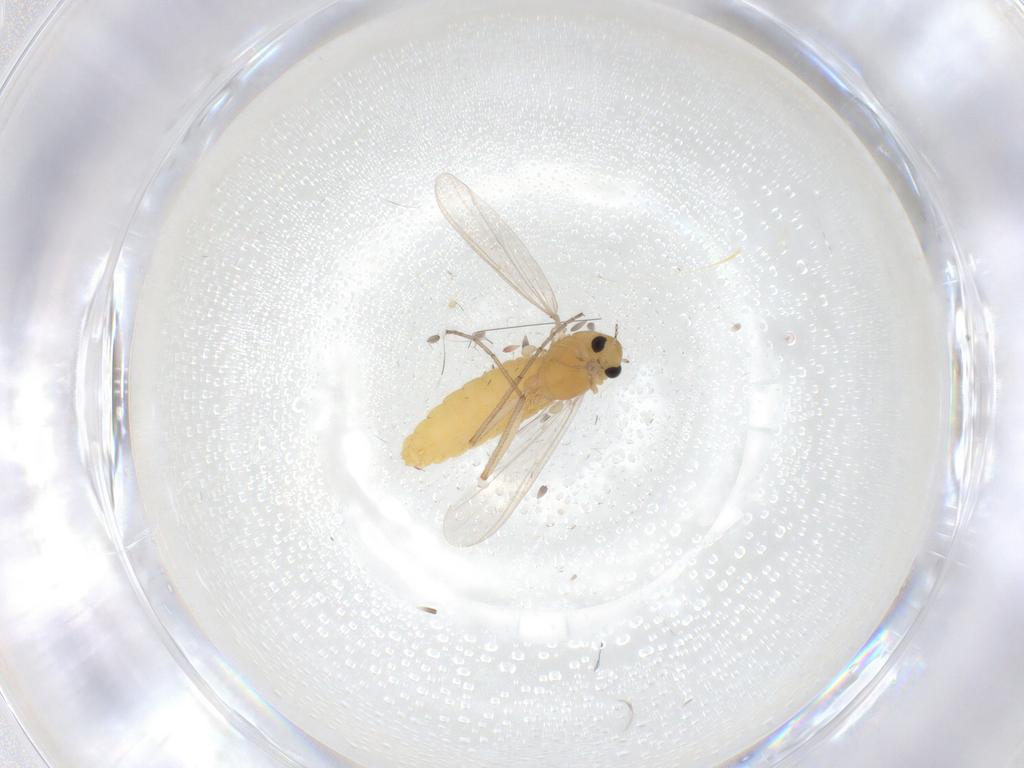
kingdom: Animalia
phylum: Arthropoda
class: Insecta
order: Diptera
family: Chironomidae
